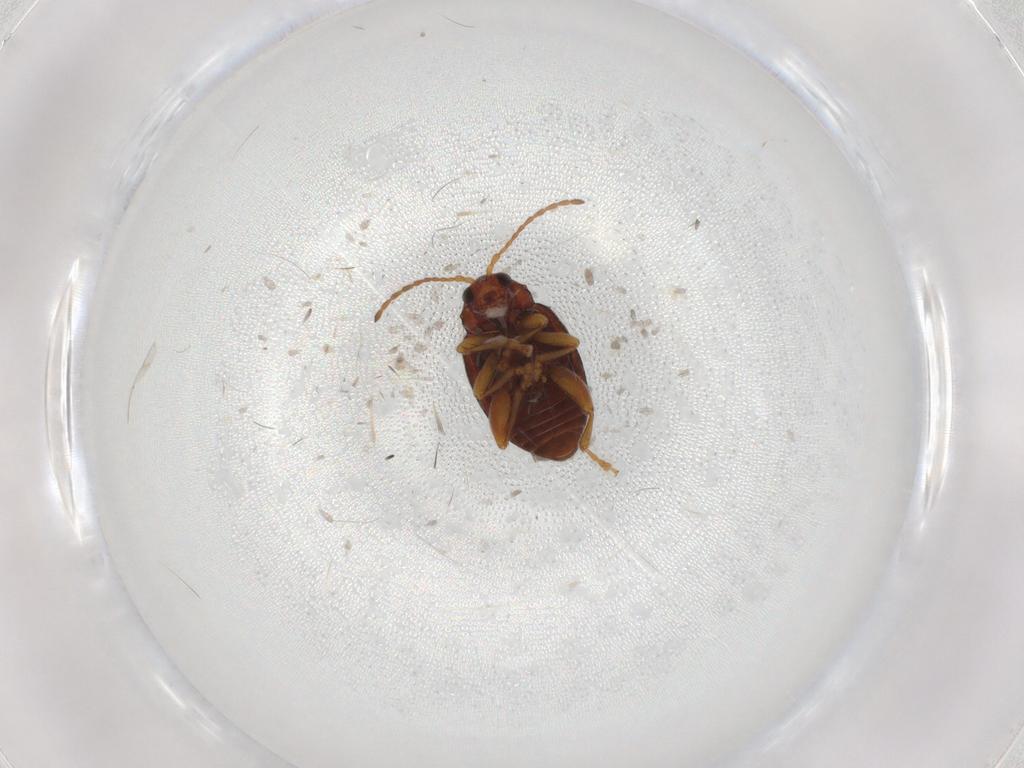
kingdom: Animalia
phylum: Arthropoda
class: Insecta
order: Coleoptera
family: Chrysomelidae
